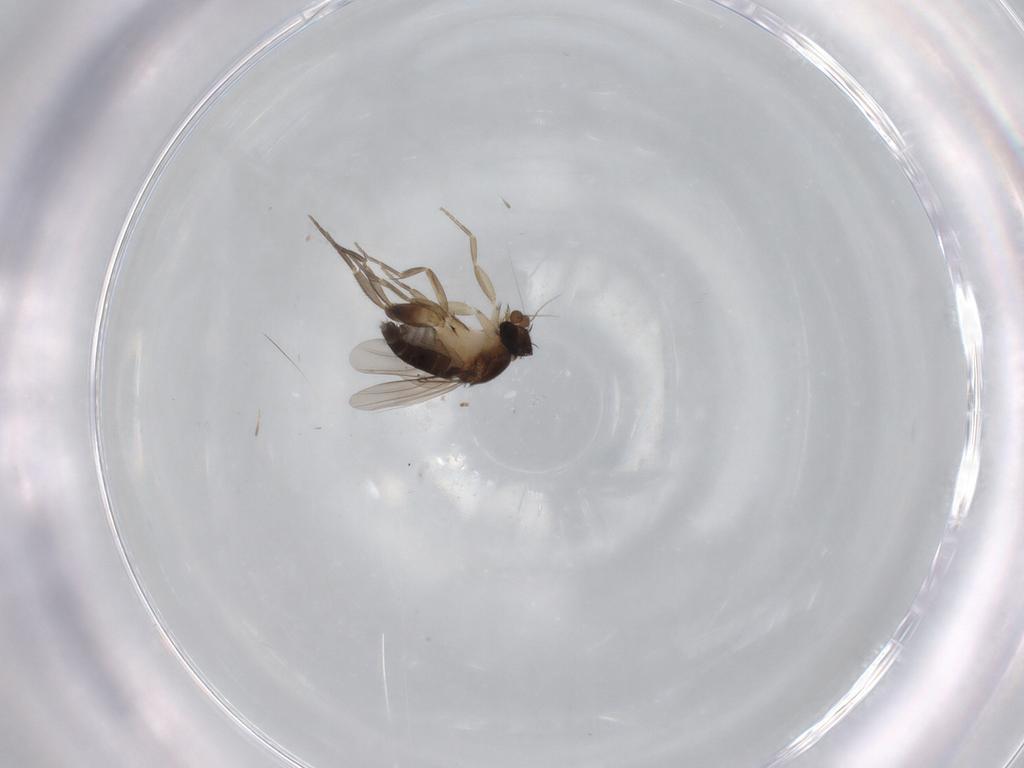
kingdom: Animalia
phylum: Arthropoda
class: Insecta
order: Diptera
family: Phoridae
